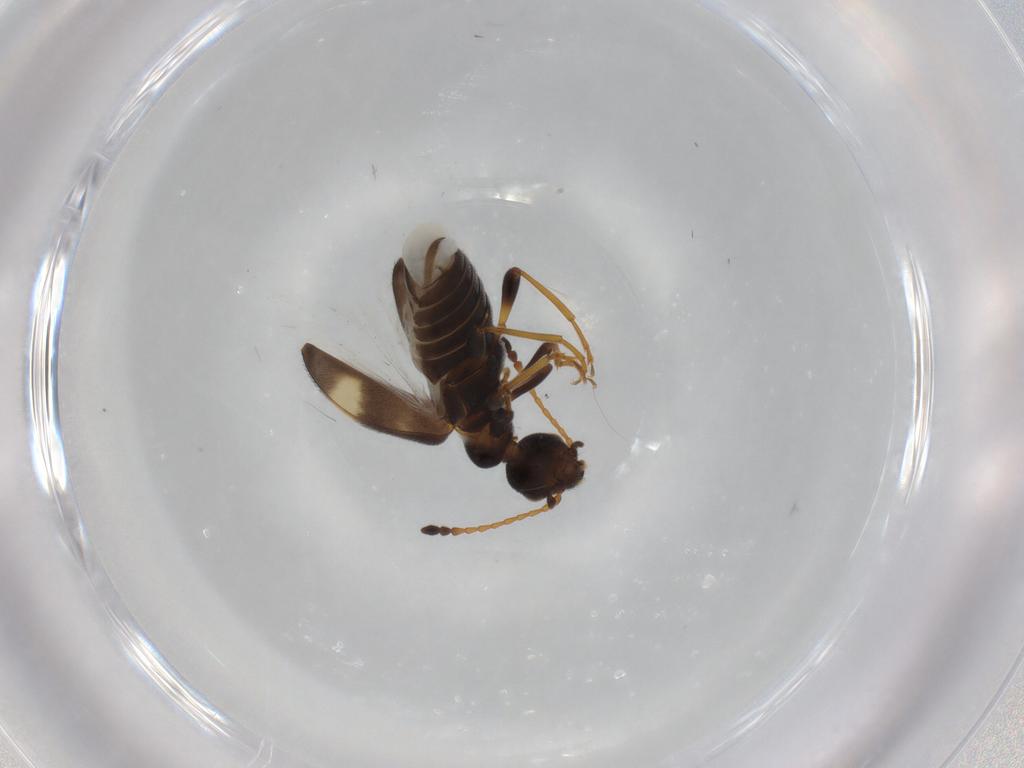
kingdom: Animalia
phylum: Arthropoda
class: Insecta
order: Coleoptera
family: Anthicidae
